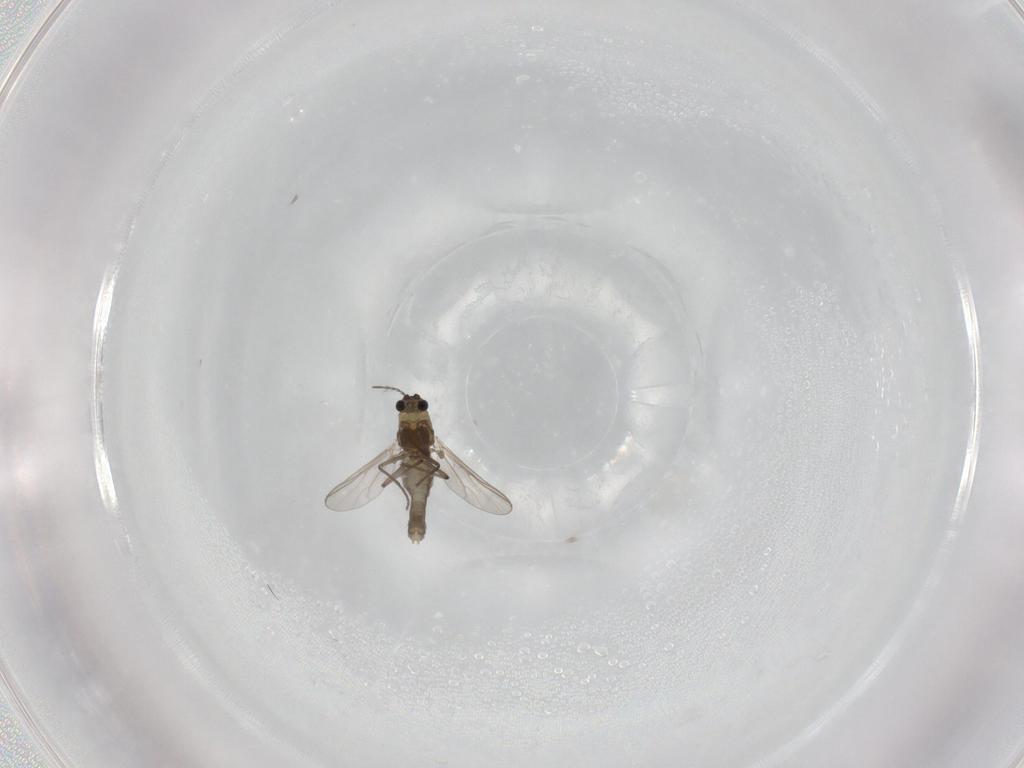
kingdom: Animalia
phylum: Arthropoda
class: Insecta
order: Diptera
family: Chironomidae
